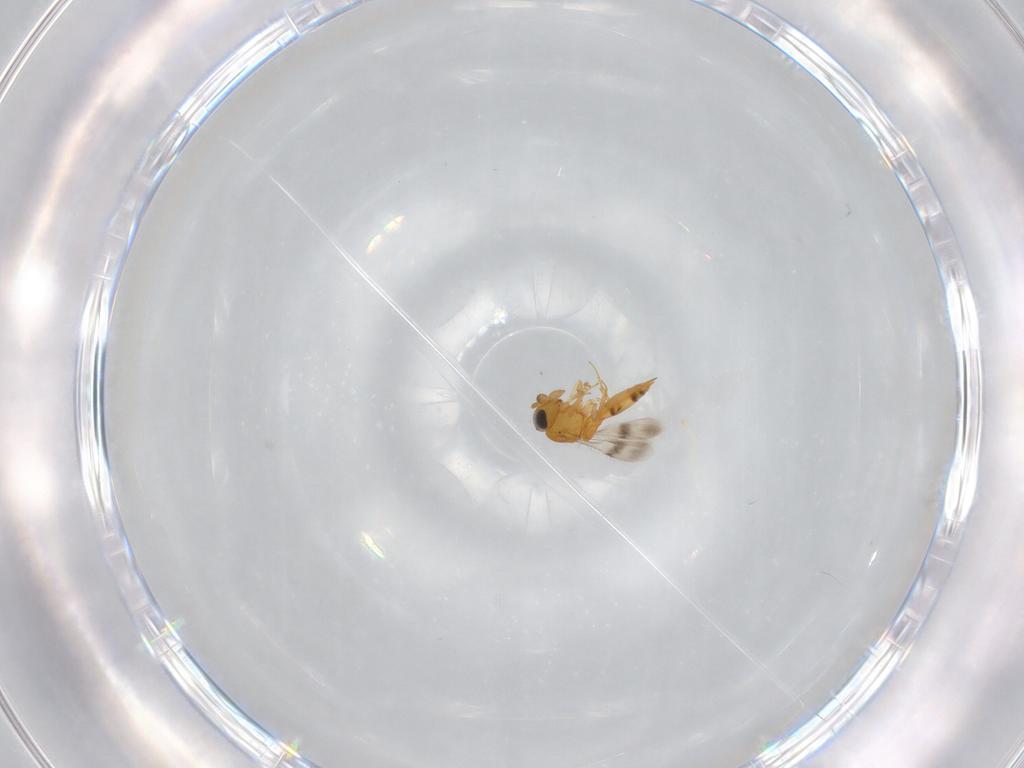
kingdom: Animalia
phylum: Arthropoda
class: Insecta
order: Hymenoptera
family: Scelionidae
